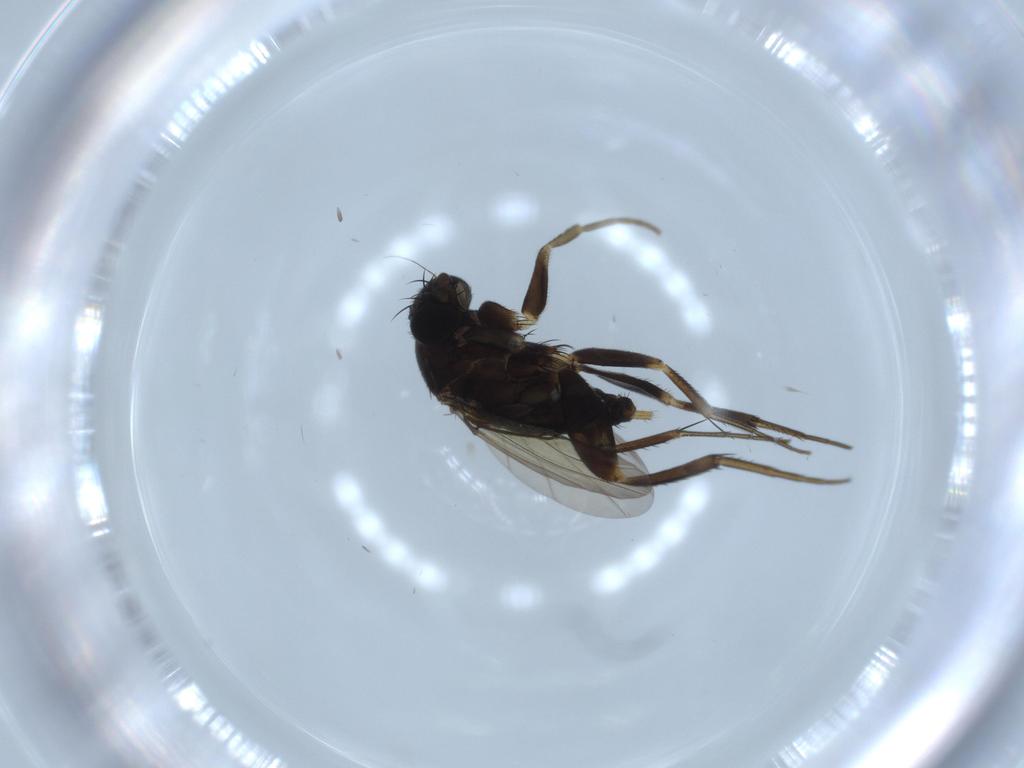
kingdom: Animalia
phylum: Arthropoda
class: Insecta
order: Diptera
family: Phoridae
